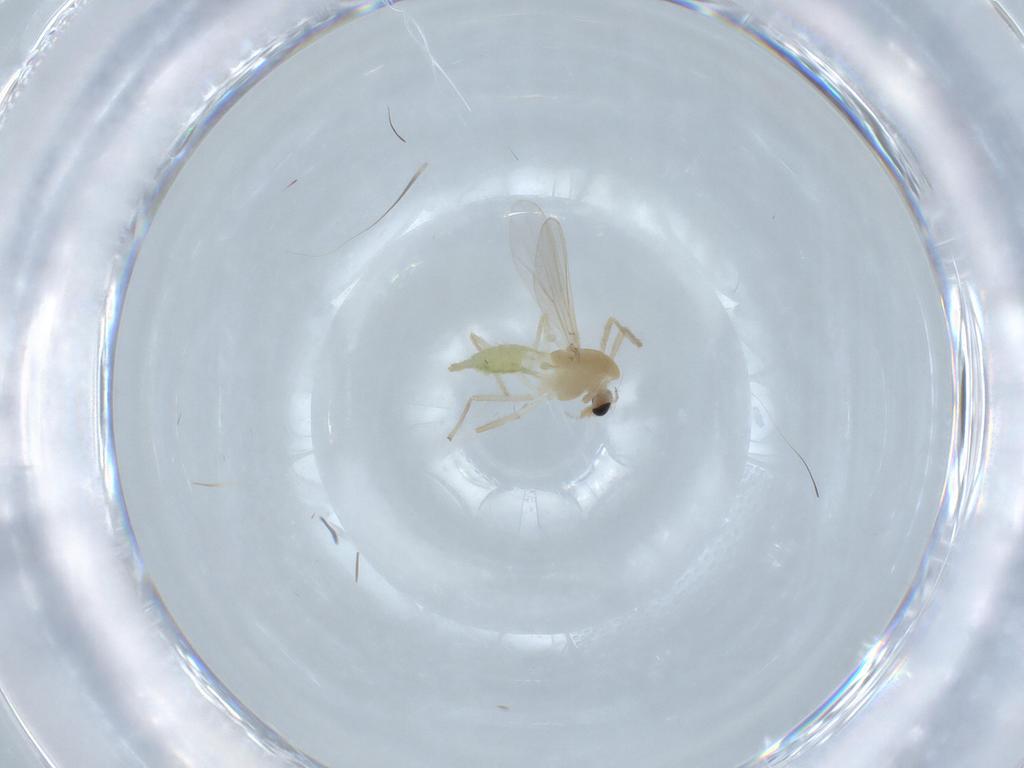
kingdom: Animalia
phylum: Arthropoda
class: Insecta
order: Diptera
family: Chironomidae
